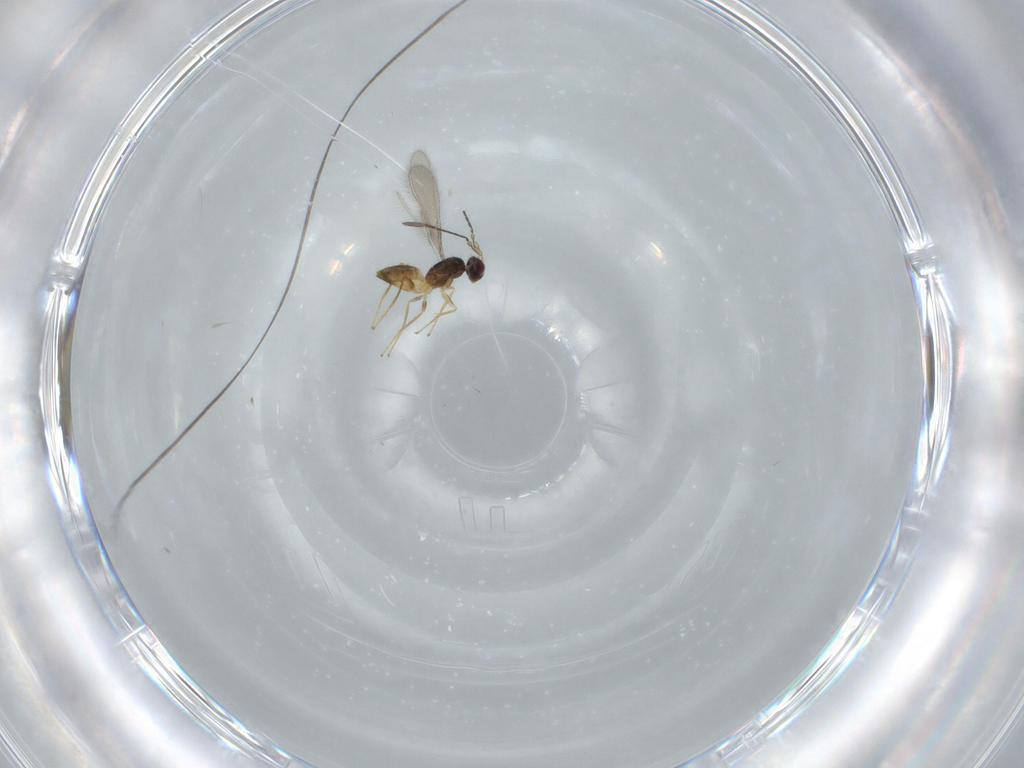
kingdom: Animalia
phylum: Arthropoda
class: Insecta
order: Hymenoptera
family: Mymaridae
